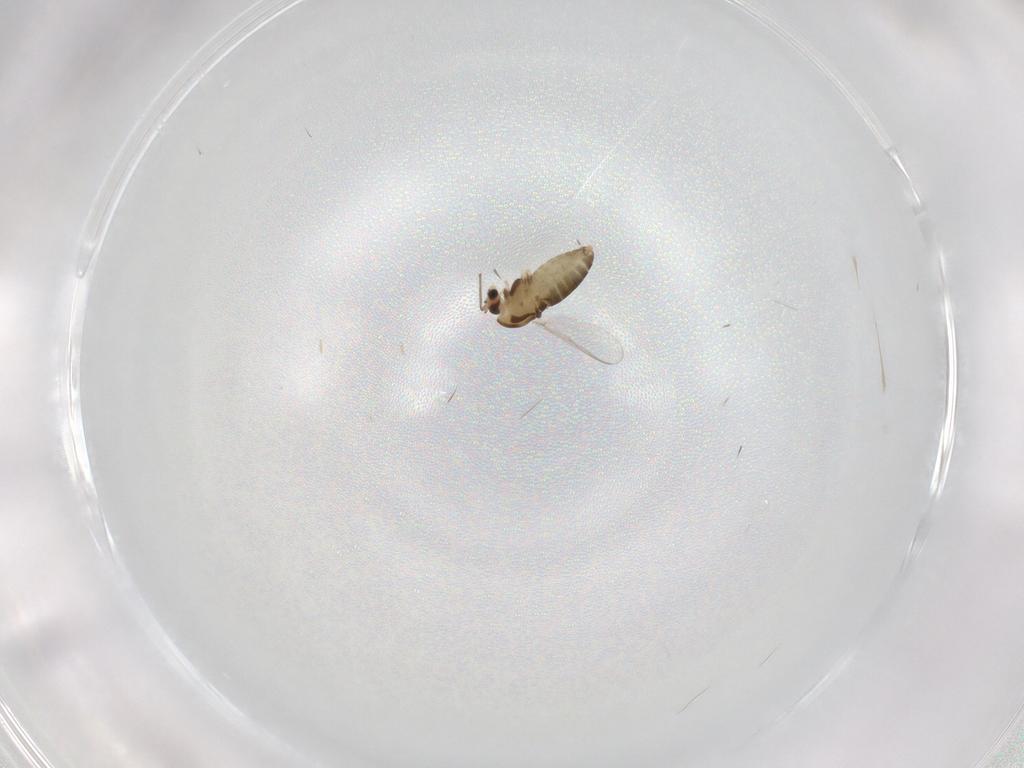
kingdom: Animalia
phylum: Arthropoda
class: Insecta
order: Diptera
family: Chironomidae
